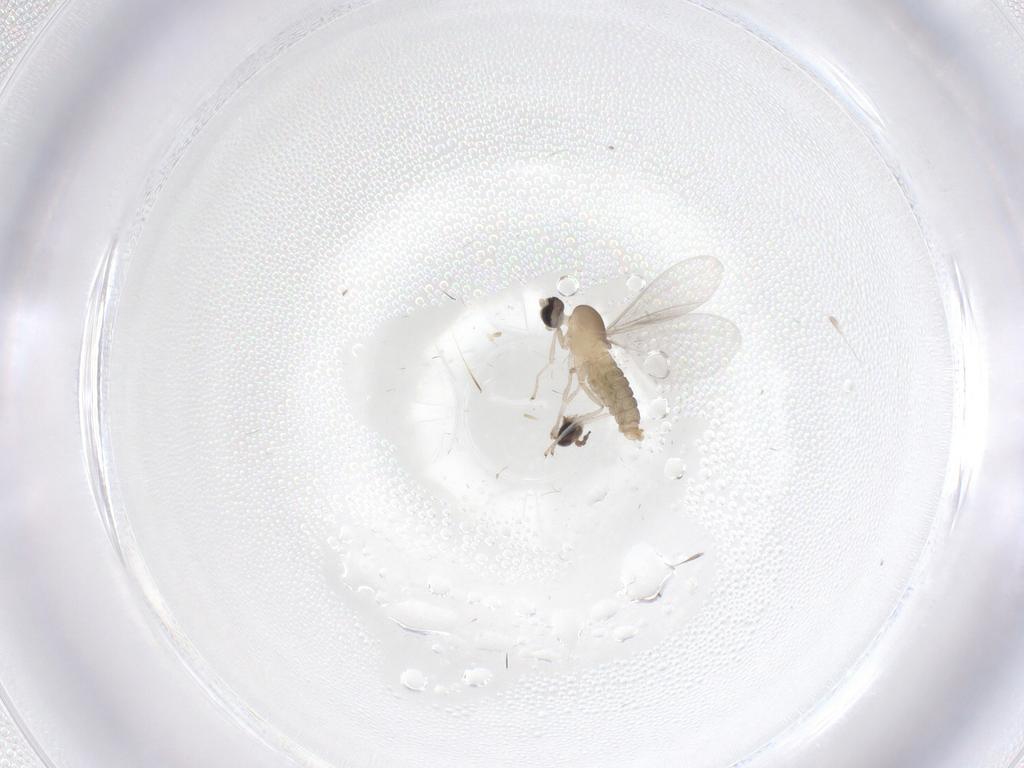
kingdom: Animalia
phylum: Arthropoda
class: Insecta
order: Diptera
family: Cecidomyiidae
